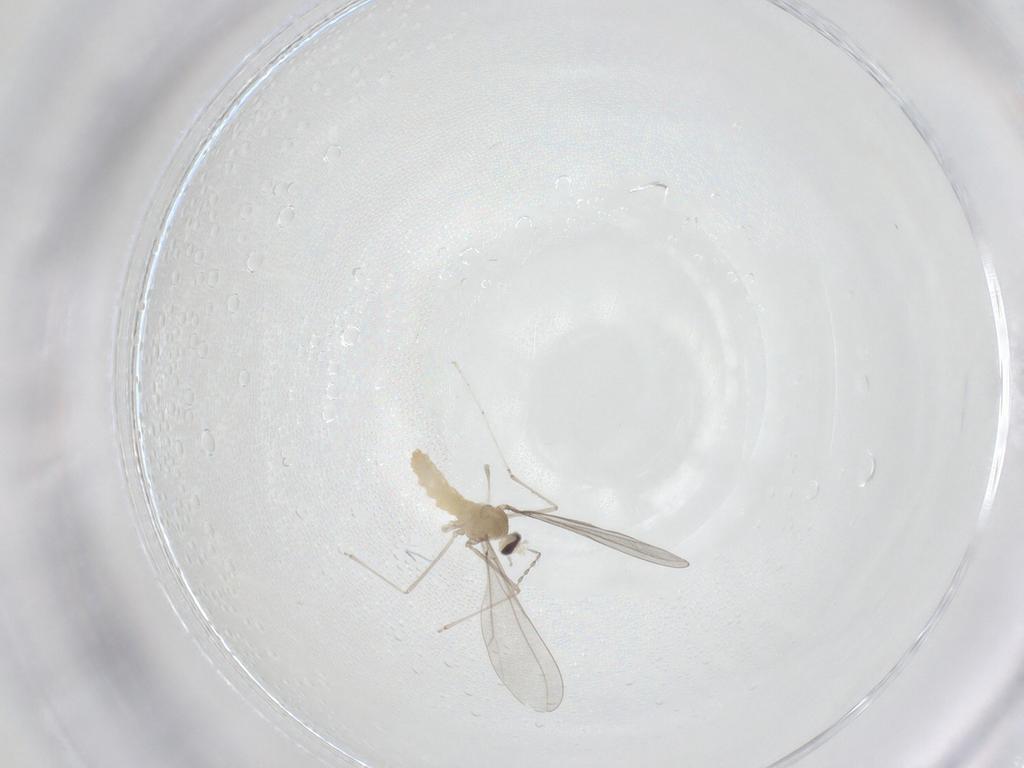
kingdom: Animalia
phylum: Arthropoda
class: Insecta
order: Diptera
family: Cecidomyiidae
